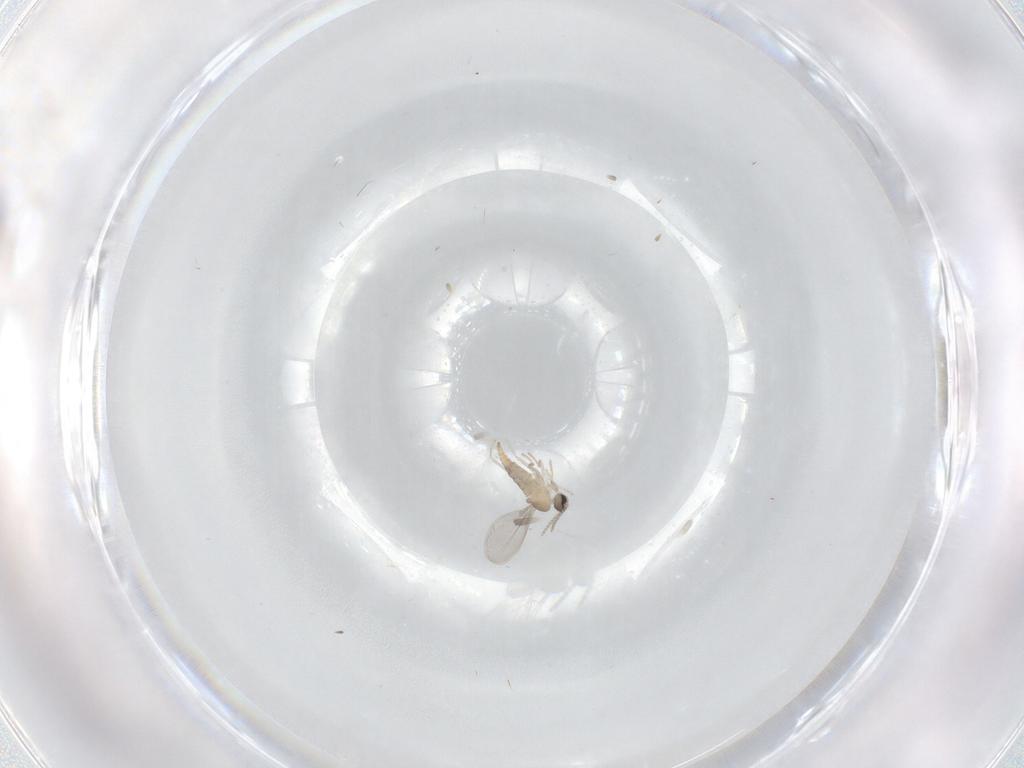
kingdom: Animalia
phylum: Arthropoda
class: Insecta
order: Diptera
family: Cecidomyiidae
